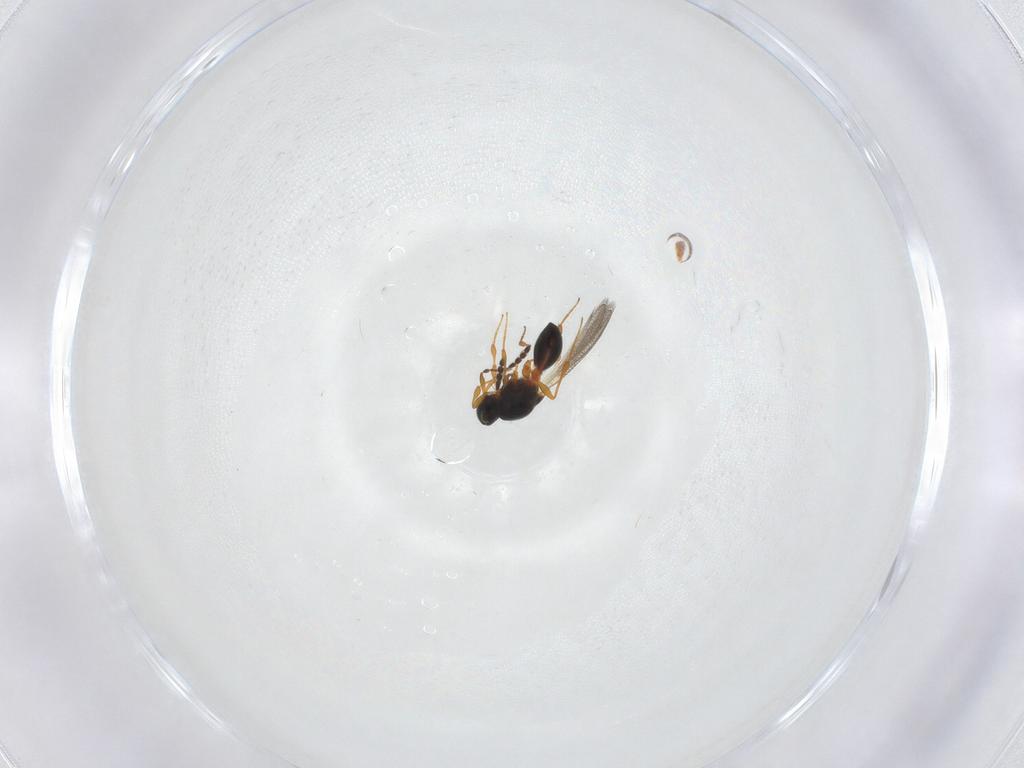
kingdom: Animalia
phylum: Arthropoda
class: Insecta
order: Hymenoptera
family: Platygastridae
